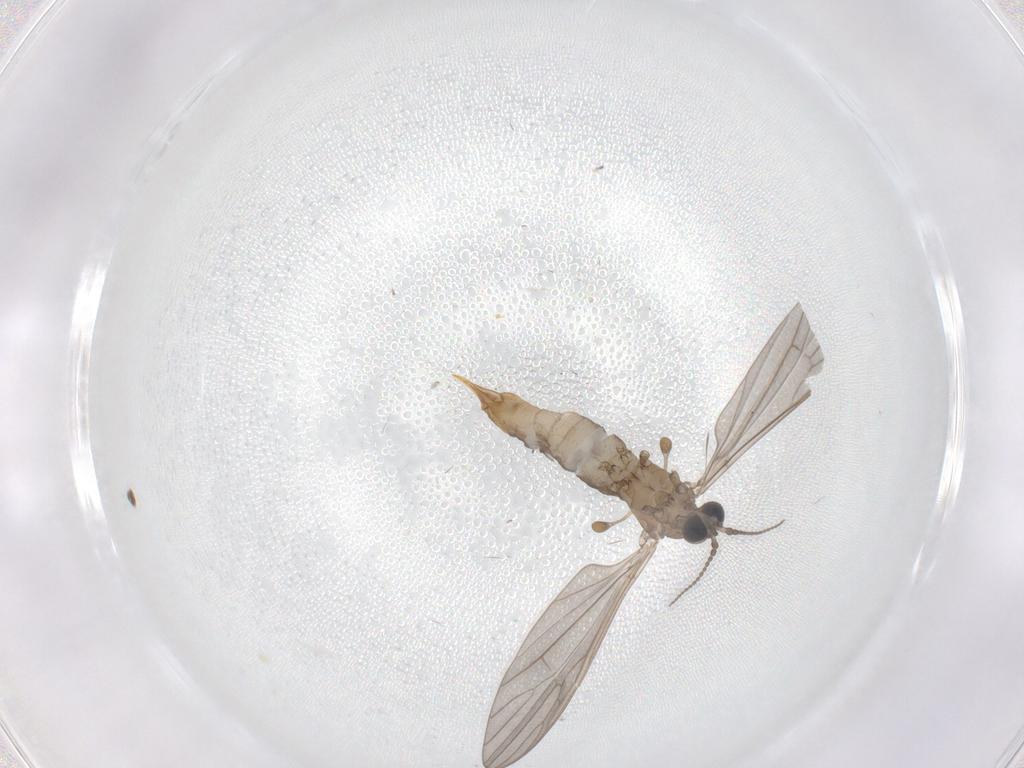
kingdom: Animalia
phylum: Arthropoda
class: Insecta
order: Diptera
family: Limoniidae
